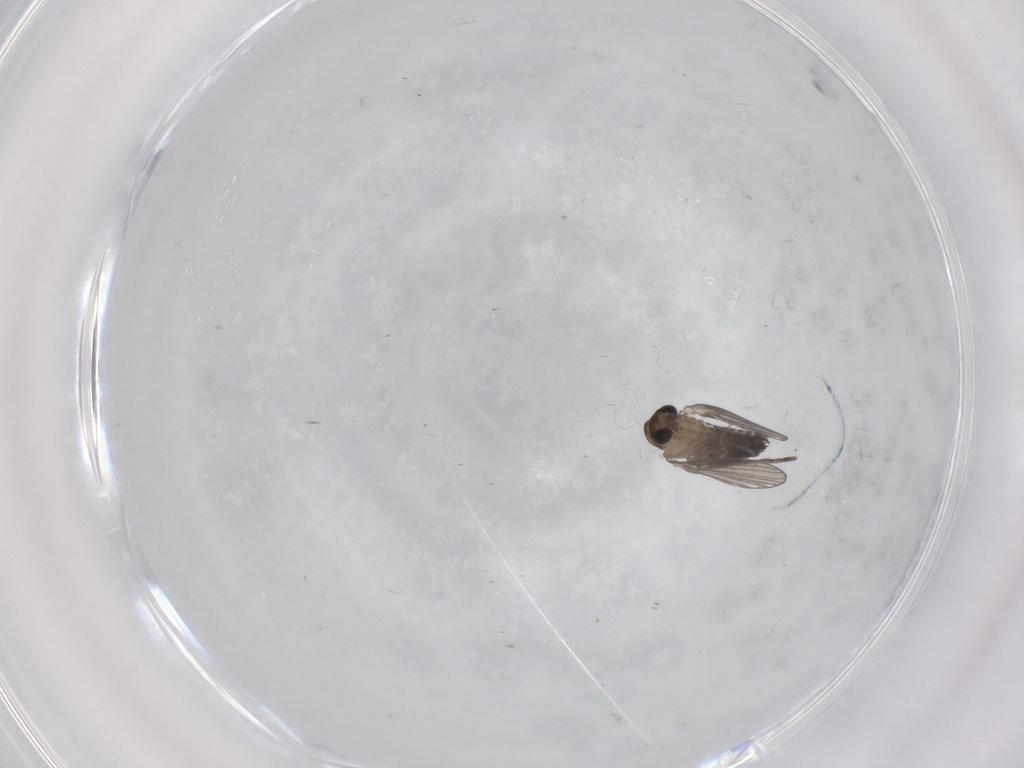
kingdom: Animalia
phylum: Arthropoda
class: Insecta
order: Diptera
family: Psychodidae
